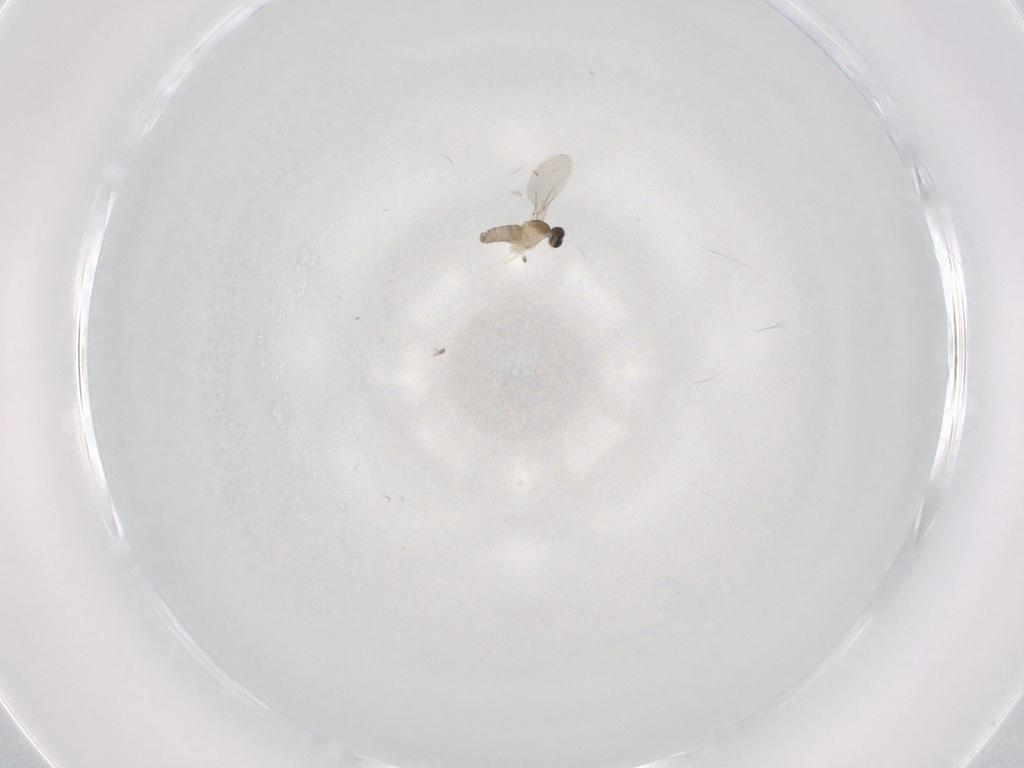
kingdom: Animalia
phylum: Arthropoda
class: Insecta
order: Diptera
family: Cecidomyiidae
